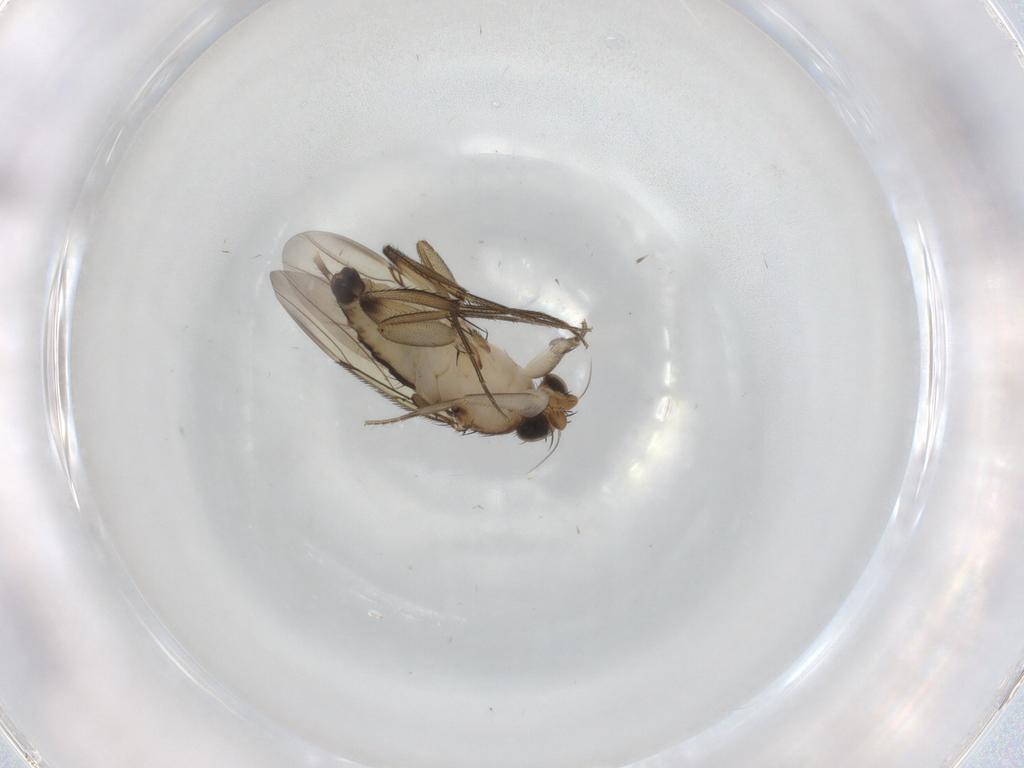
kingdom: Animalia
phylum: Arthropoda
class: Insecta
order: Diptera
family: Phoridae
